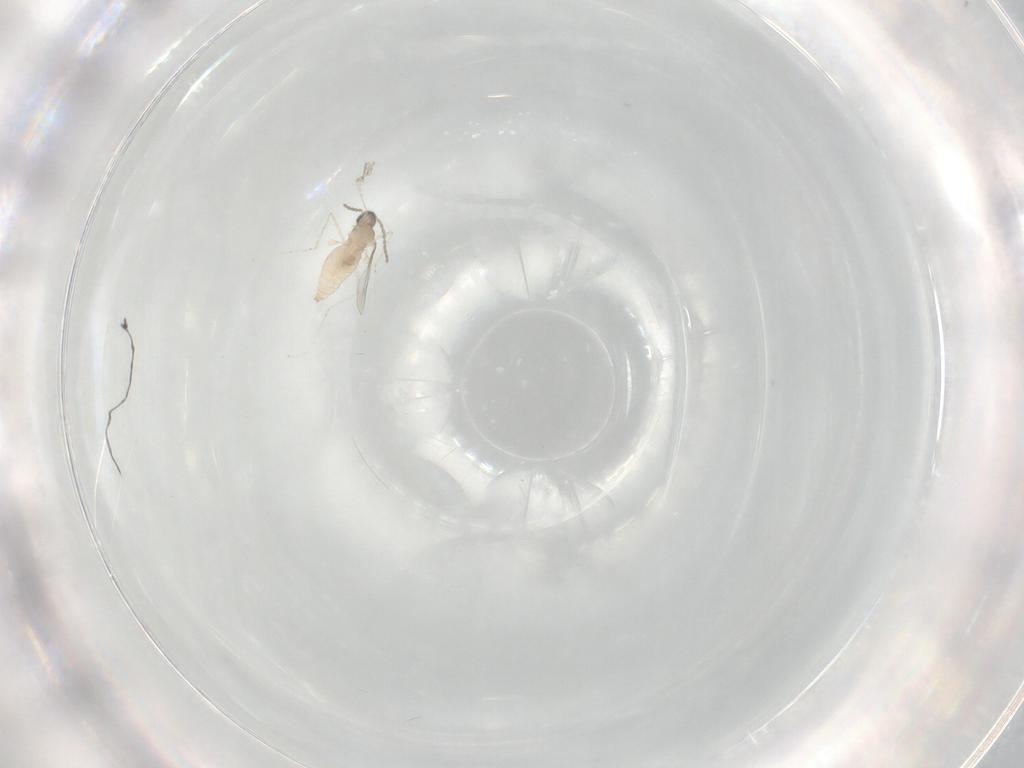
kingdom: Animalia
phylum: Arthropoda
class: Insecta
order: Diptera
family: Cecidomyiidae
